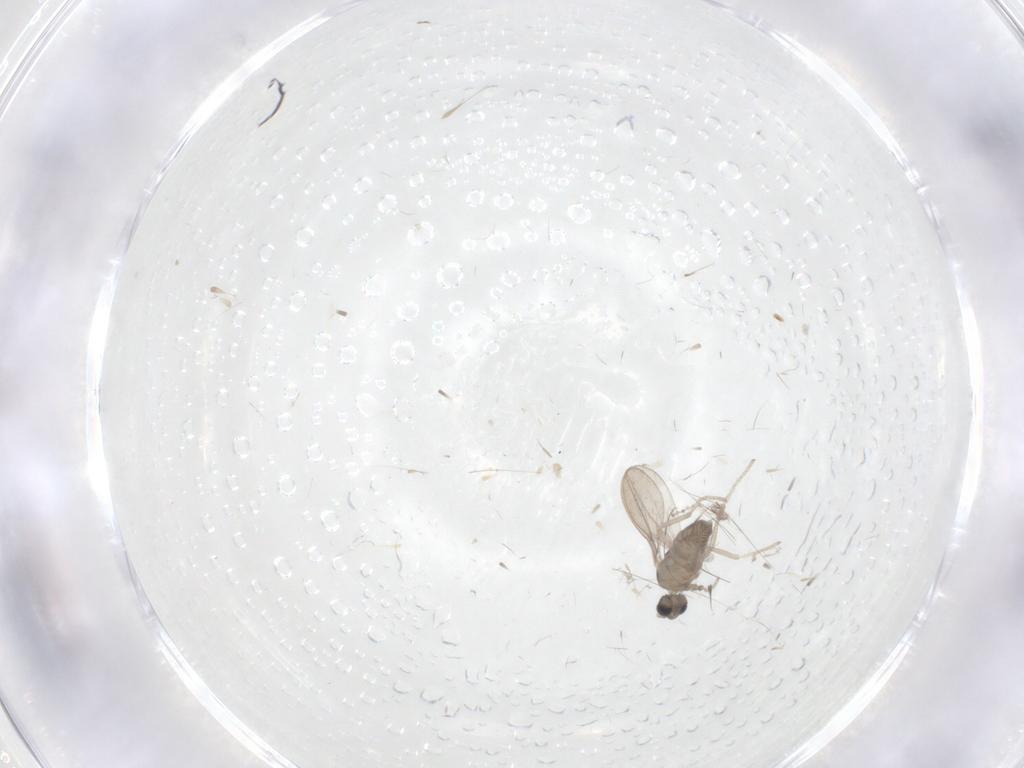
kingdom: Animalia
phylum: Arthropoda
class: Insecta
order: Diptera
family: Cecidomyiidae
